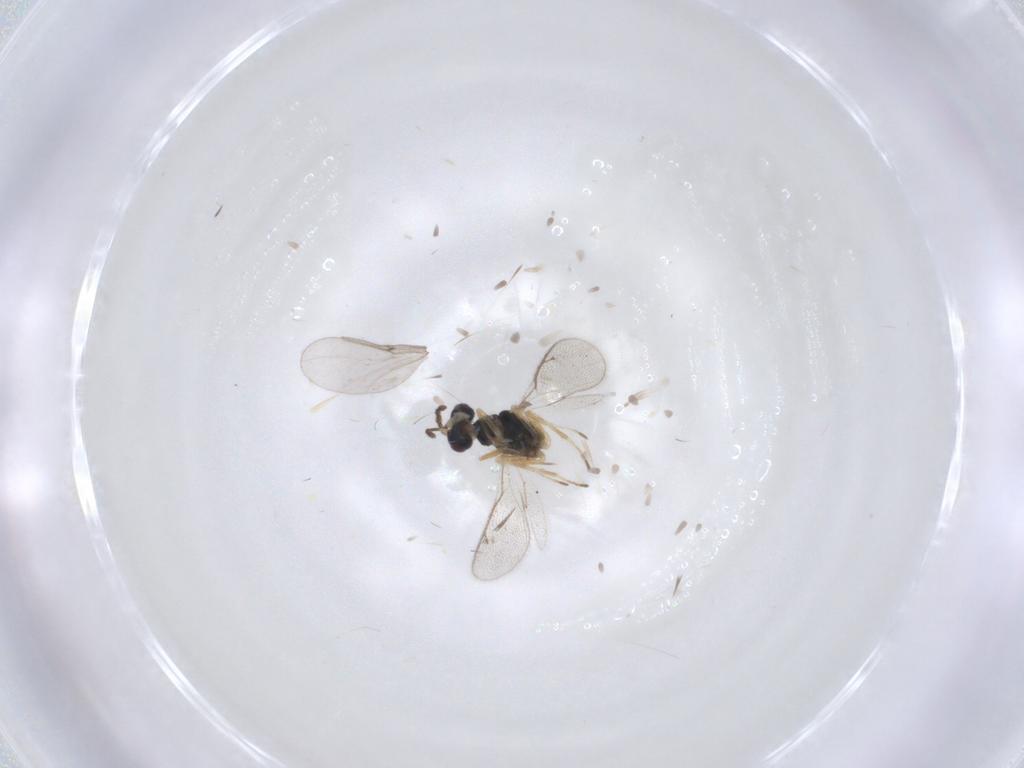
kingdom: Animalia
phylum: Arthropoda
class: Insecta
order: Hymenoptera
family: Eulophidae
